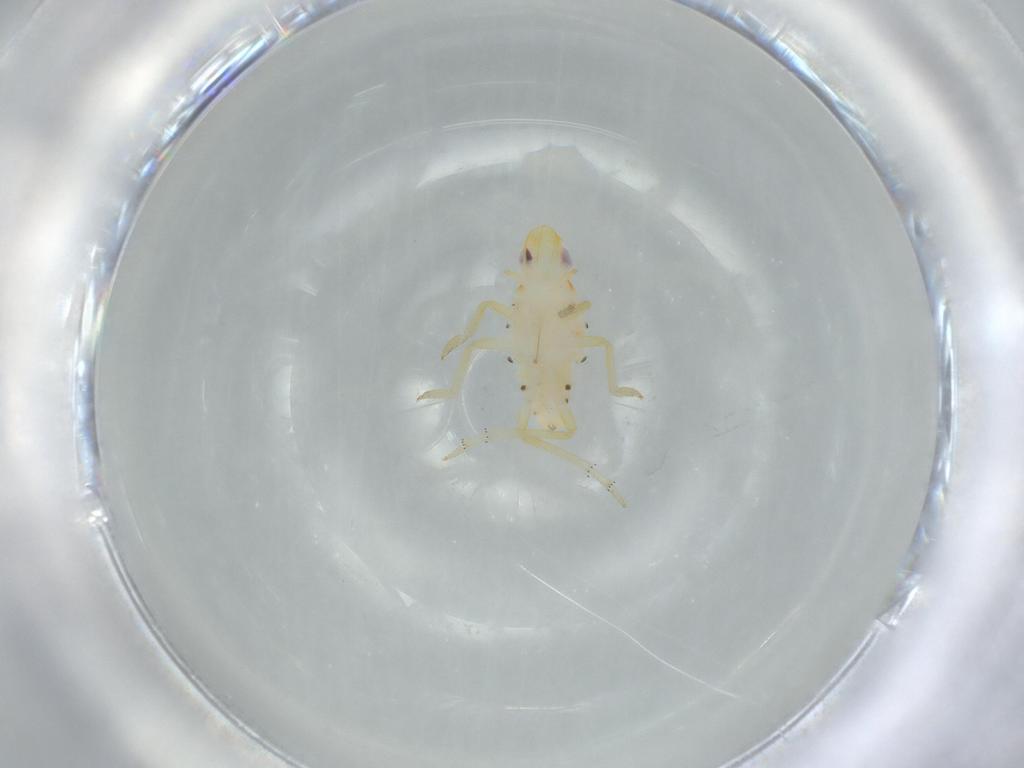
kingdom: Animalia
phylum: Arthropoda
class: Insecta
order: Hemiptera
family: Tropiduchidae
